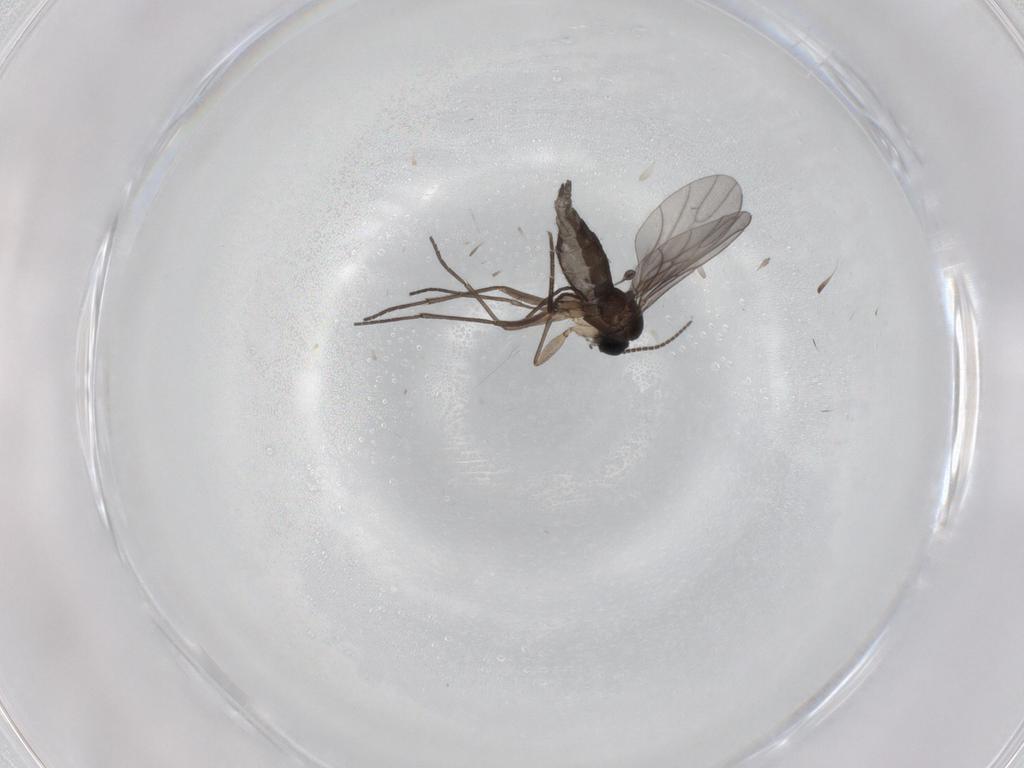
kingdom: Animalia
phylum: Arthropoda
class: Insecta
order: Diptera
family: Sciaridae
